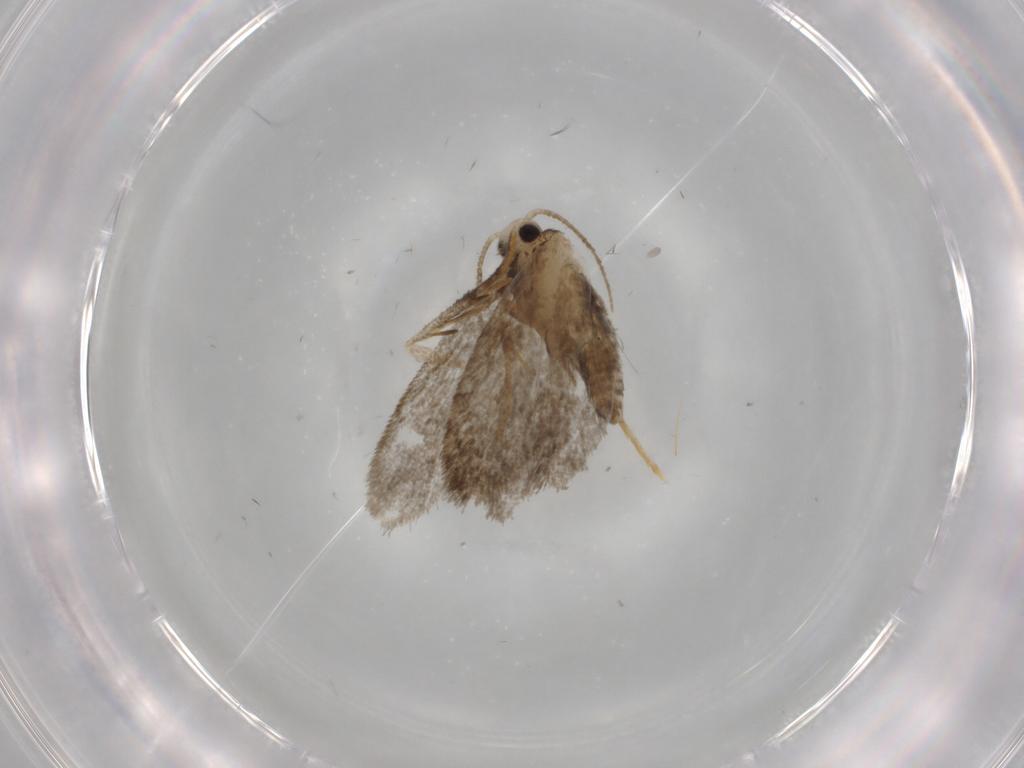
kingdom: Animalia
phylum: Arthropoda
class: Insecta
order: Lepidoptera
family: Psychidae
